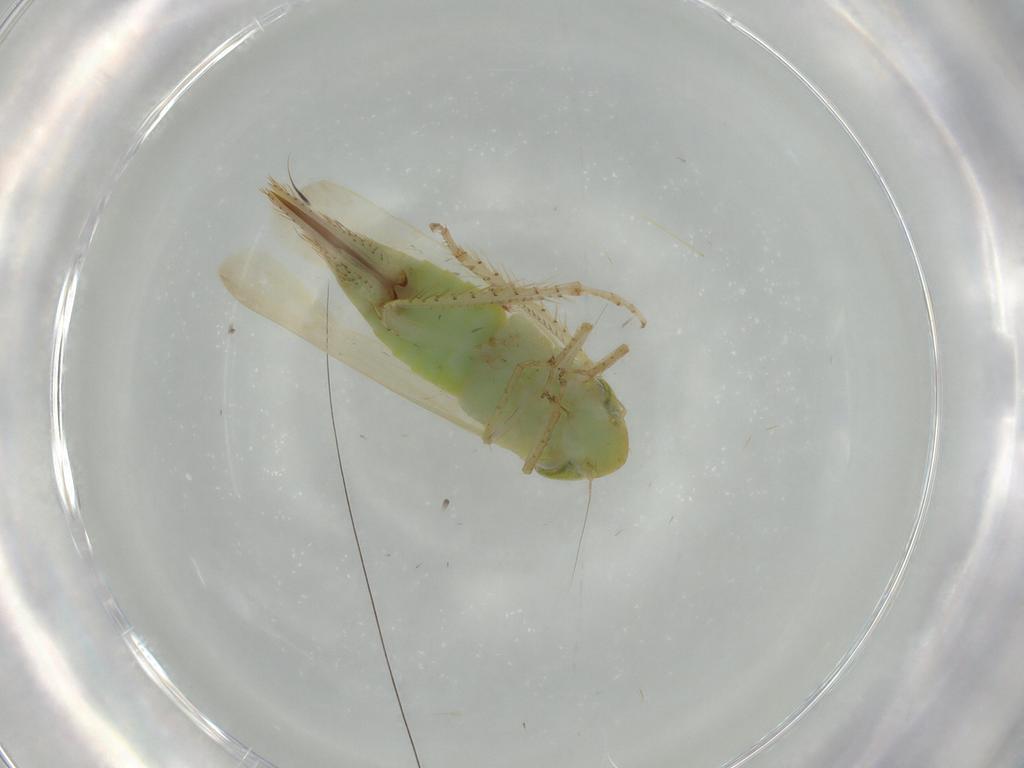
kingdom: Animalia
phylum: Arthropoda
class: Insecta
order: Hemiptera
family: Cicadellidae
